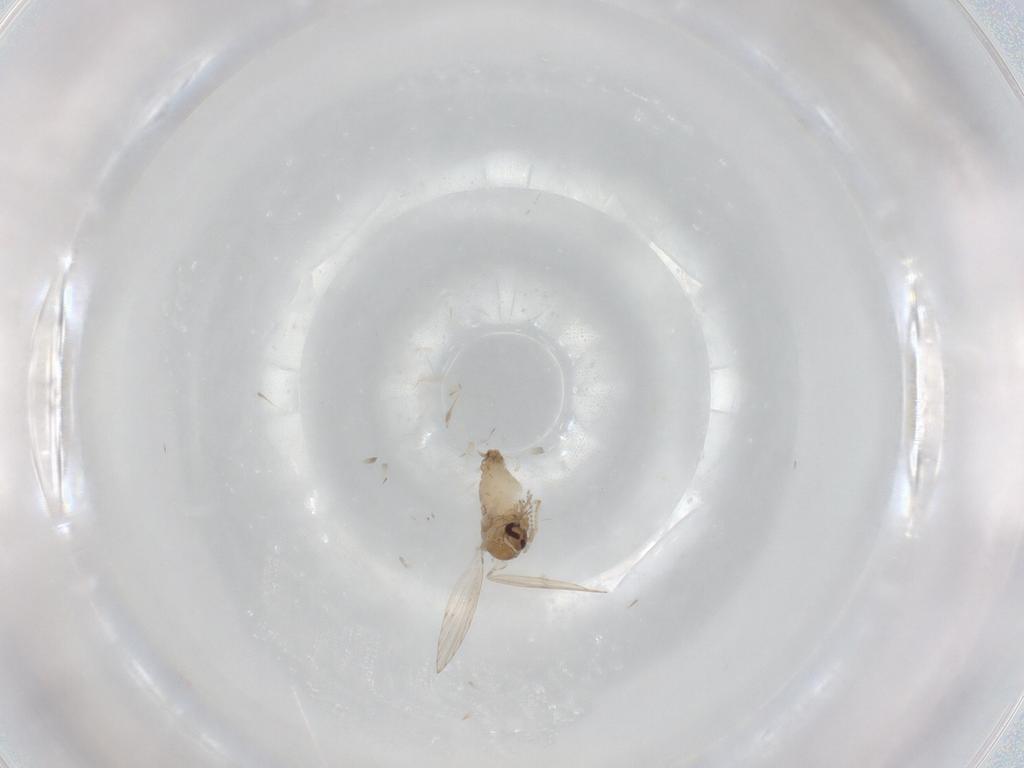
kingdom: Animalia
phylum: Arthropoda
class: Insecta
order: Diptera
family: Psychodidae
